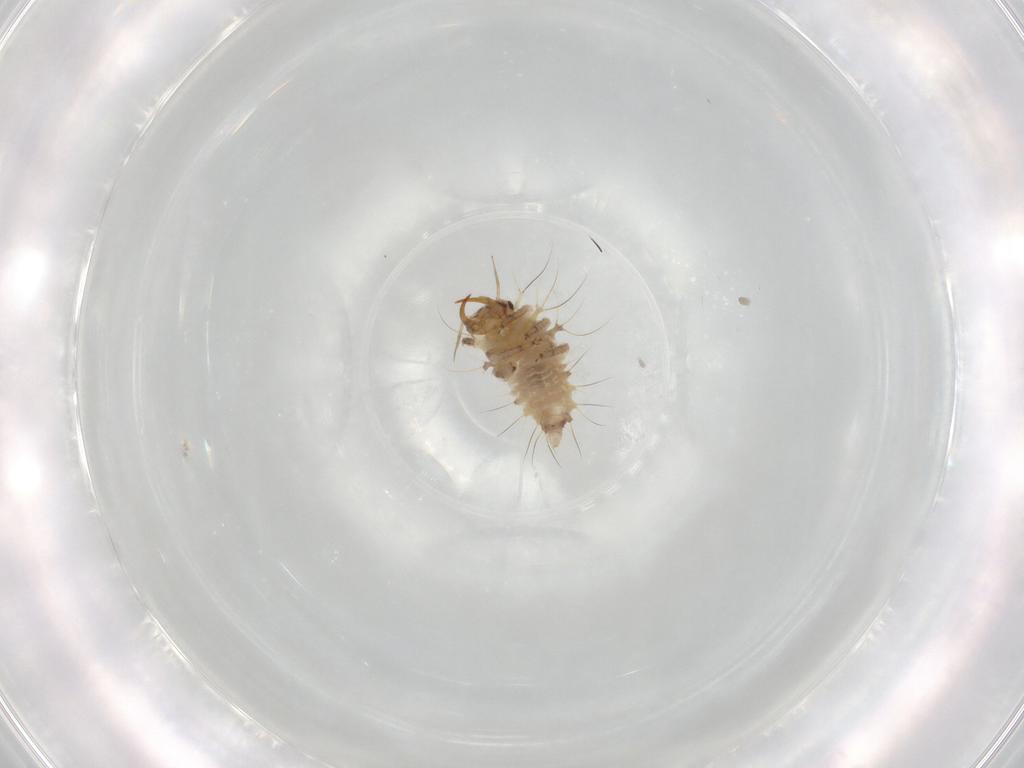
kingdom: Animalia
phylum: Arthropoda
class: Insecta
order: Neuroptera
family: Chrysopidae
